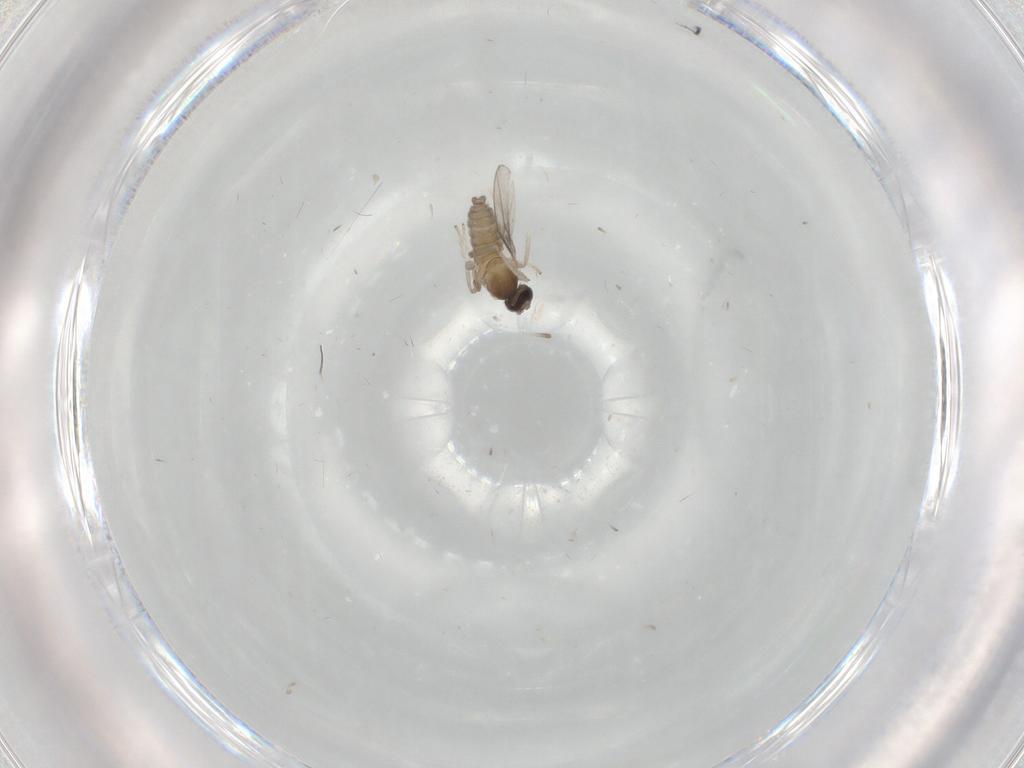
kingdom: Animalia
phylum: Arthropoda
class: Insecta
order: Diptera
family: Cecidomyiidae
